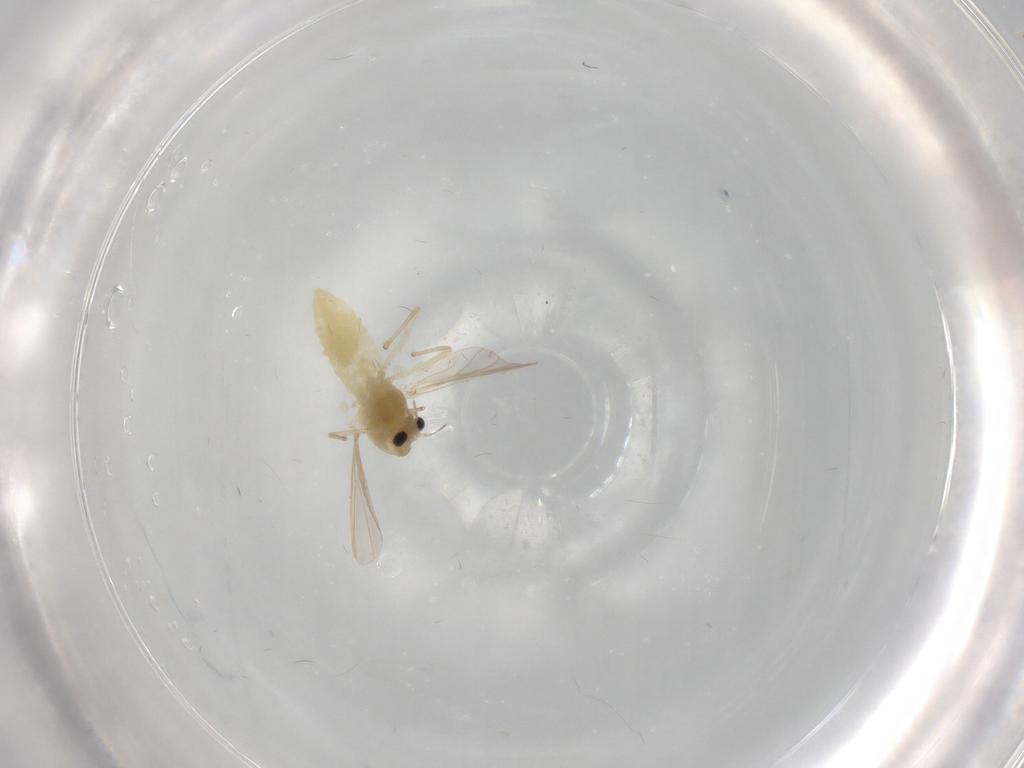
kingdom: Animalia
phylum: Arthropoda
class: Insecta
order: Diptera
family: Chironomidae
